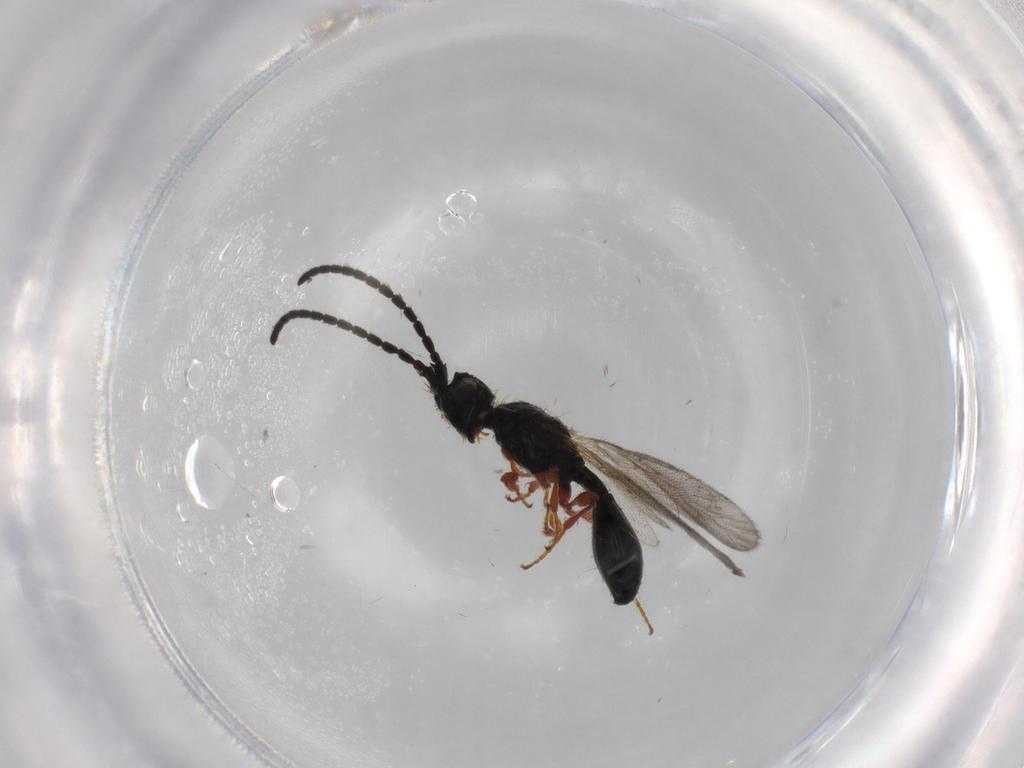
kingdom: Animalia
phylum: Arthropoda
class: Insecta
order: Hymenoptera
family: Diapriidae
